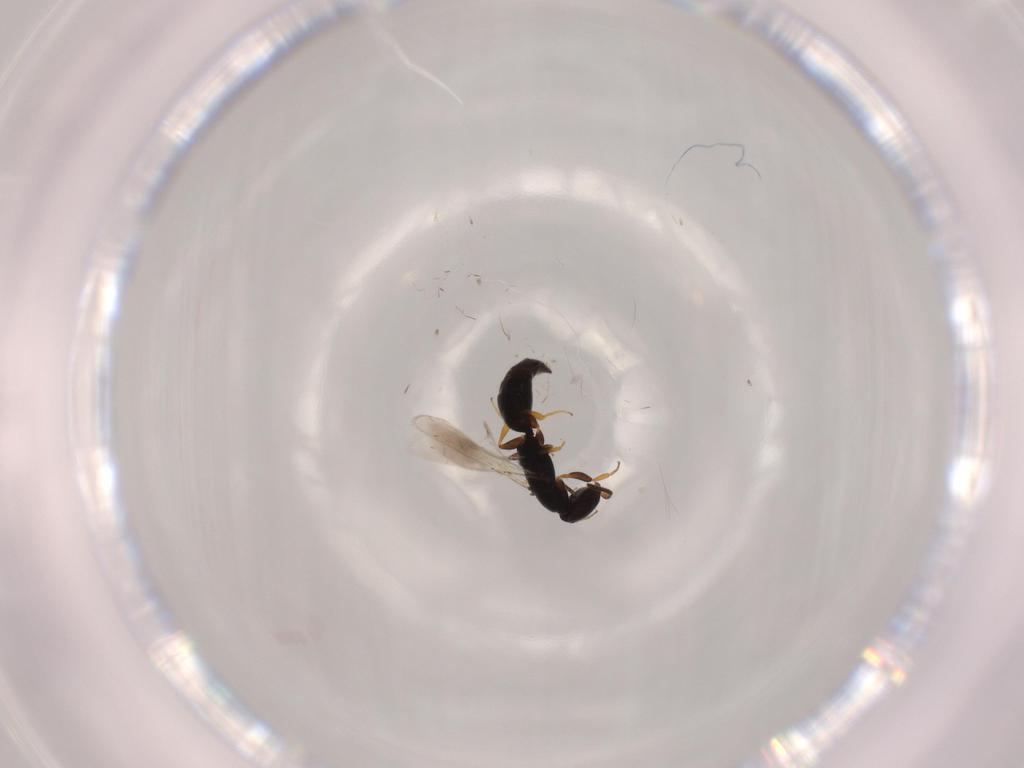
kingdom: Animalia
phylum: Arthropoda
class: Insecta
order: Hymenoptera
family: Bethylidae
